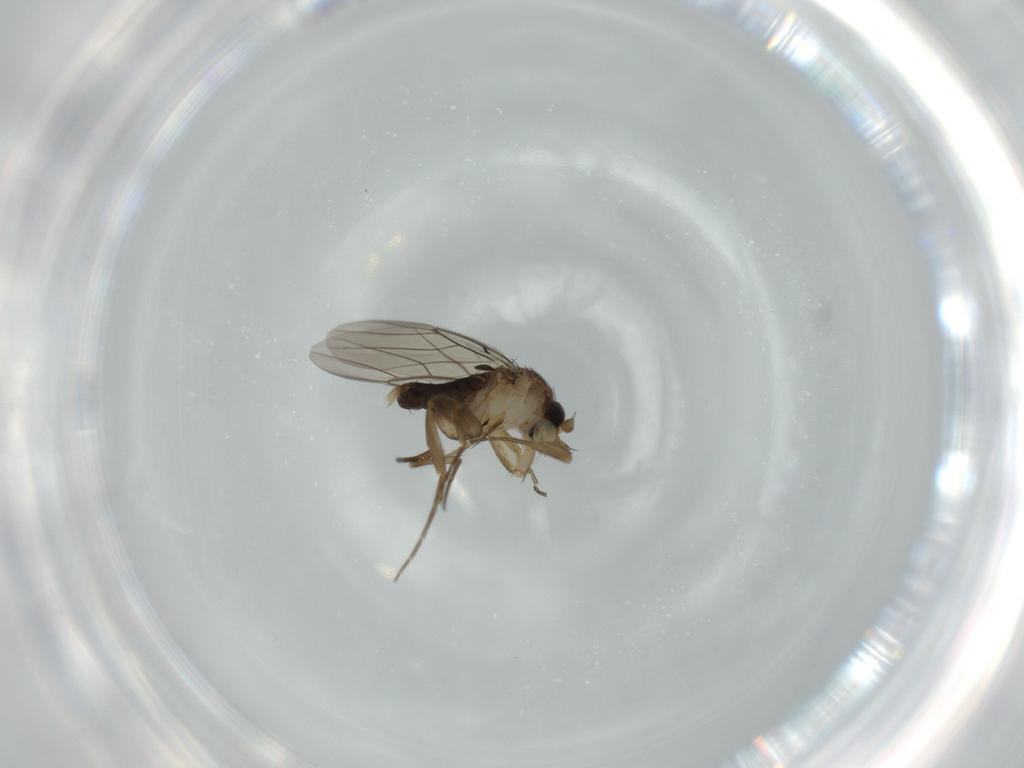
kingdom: Animalia
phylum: Arthropoda
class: Insecta
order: Diptera
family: Phoridae
